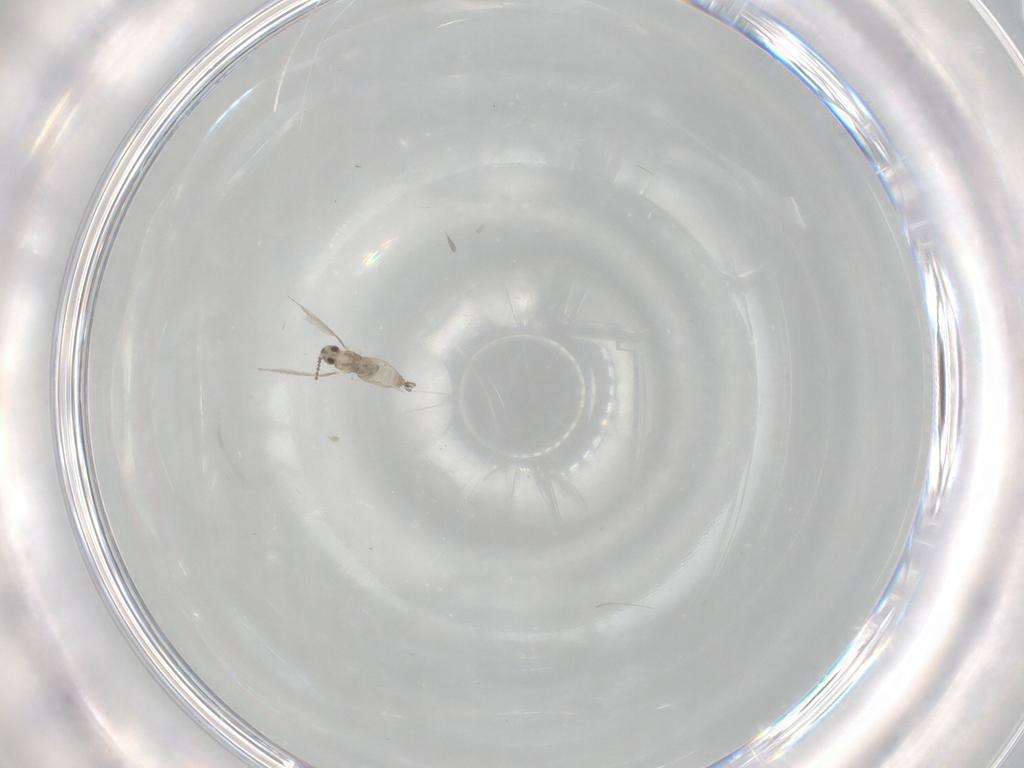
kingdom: Animalia
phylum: Arthropoda
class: Insecta
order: Diptera
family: Cecidomyiidae
